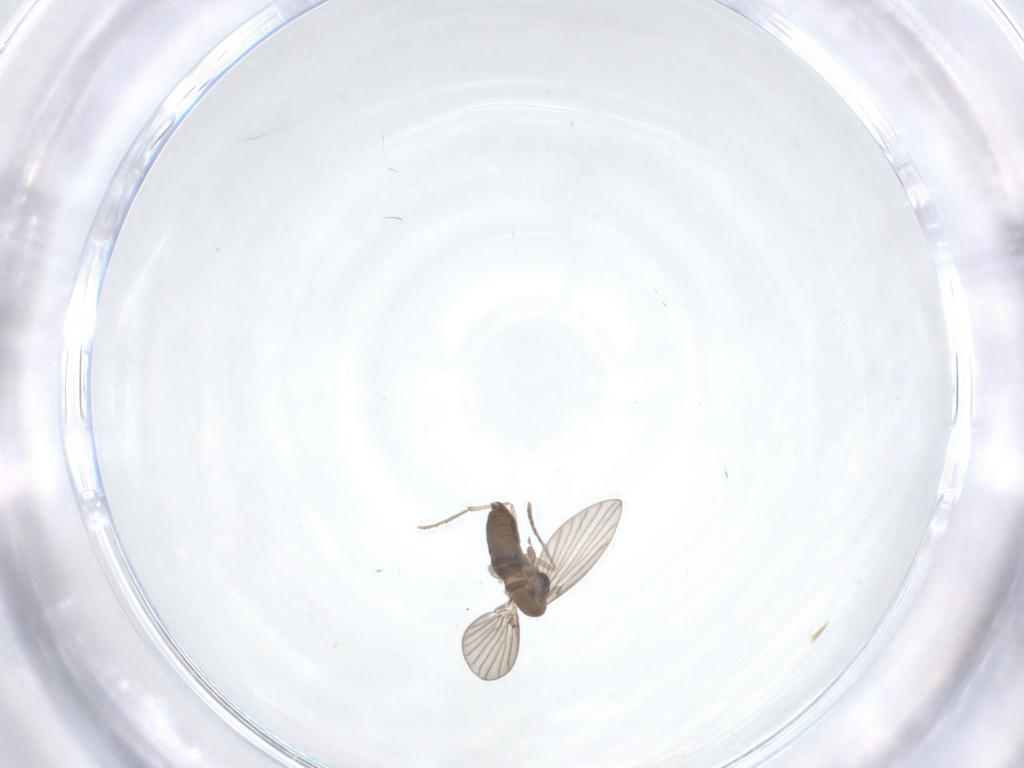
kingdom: Animalia
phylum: Arthropoda
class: Insecta
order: Diptera
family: Psychodidae
